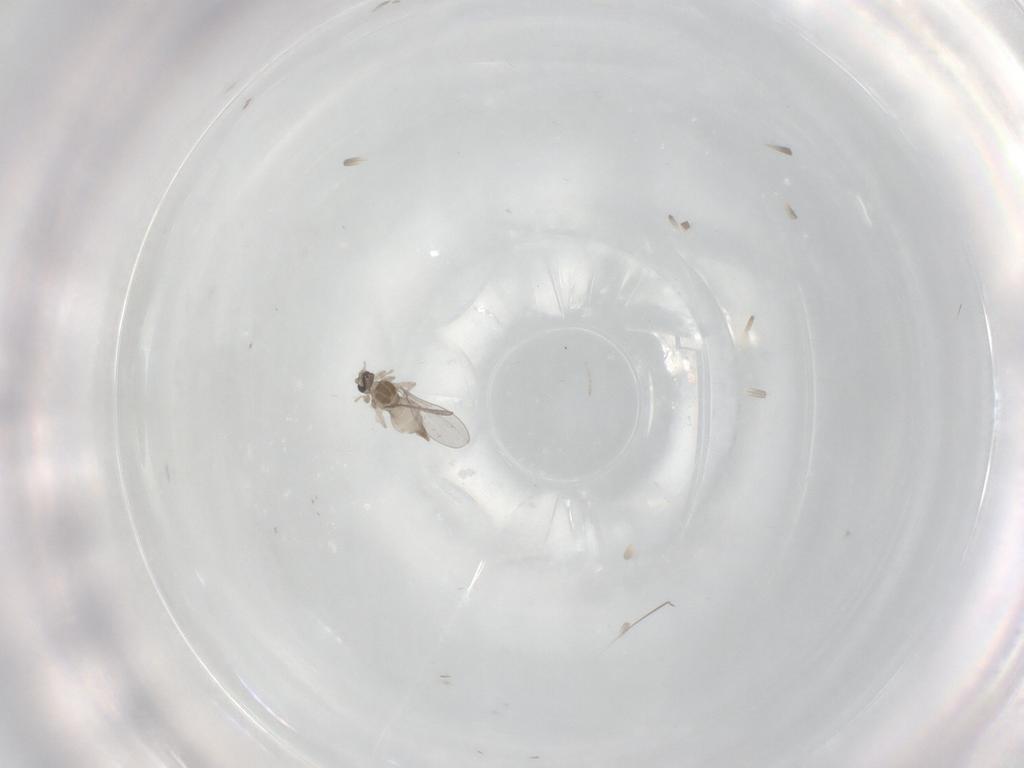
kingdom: Animalia
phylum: Arthropoda
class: Insecta
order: Diptera
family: Cecidomyiidae
